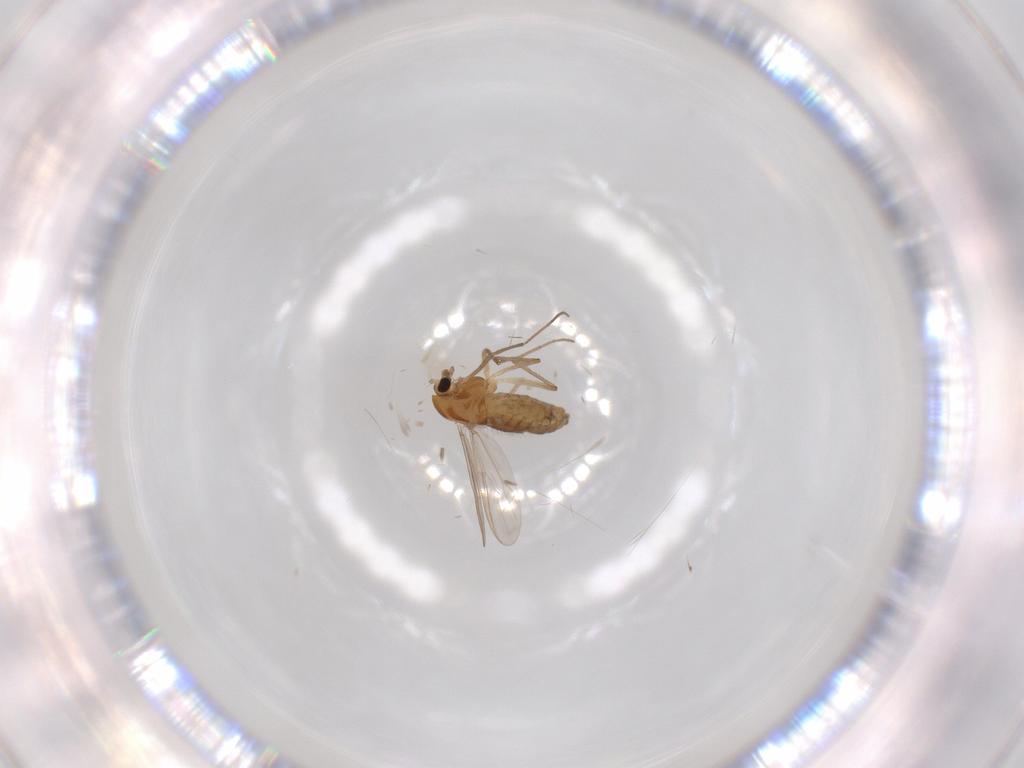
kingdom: Animalia
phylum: Arthropoda
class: Insecta
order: Diptera
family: Chironomidae
